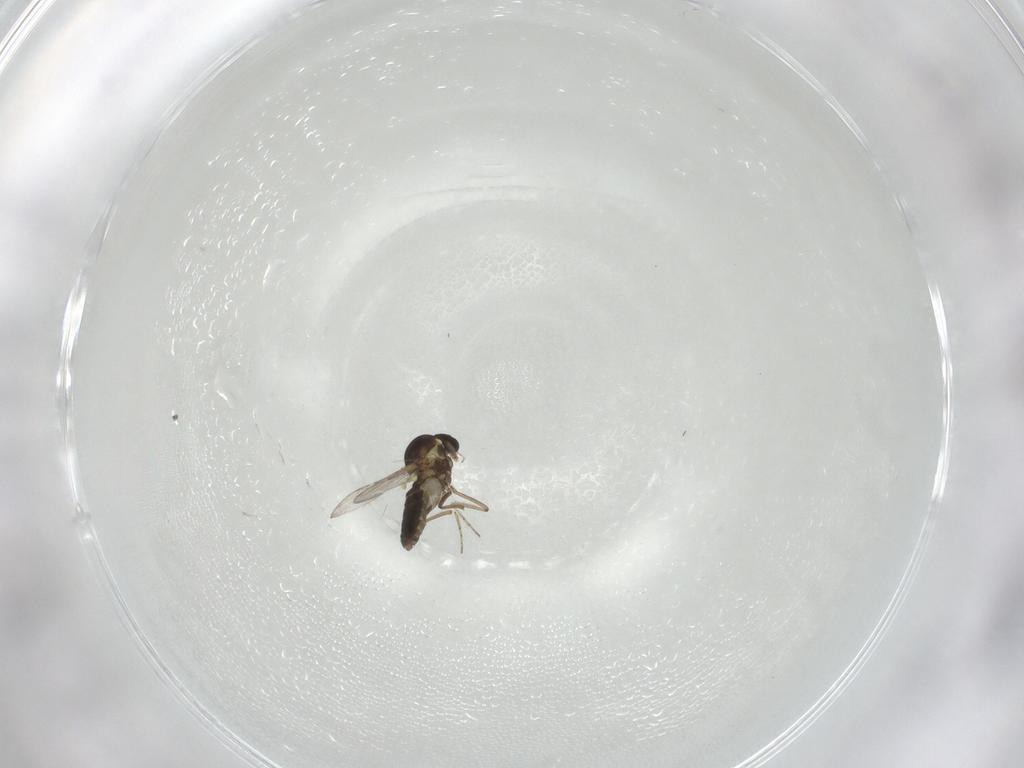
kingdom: Animalia
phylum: Arthropoda
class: Insecta
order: Diptera
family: Ceratopogonidae
